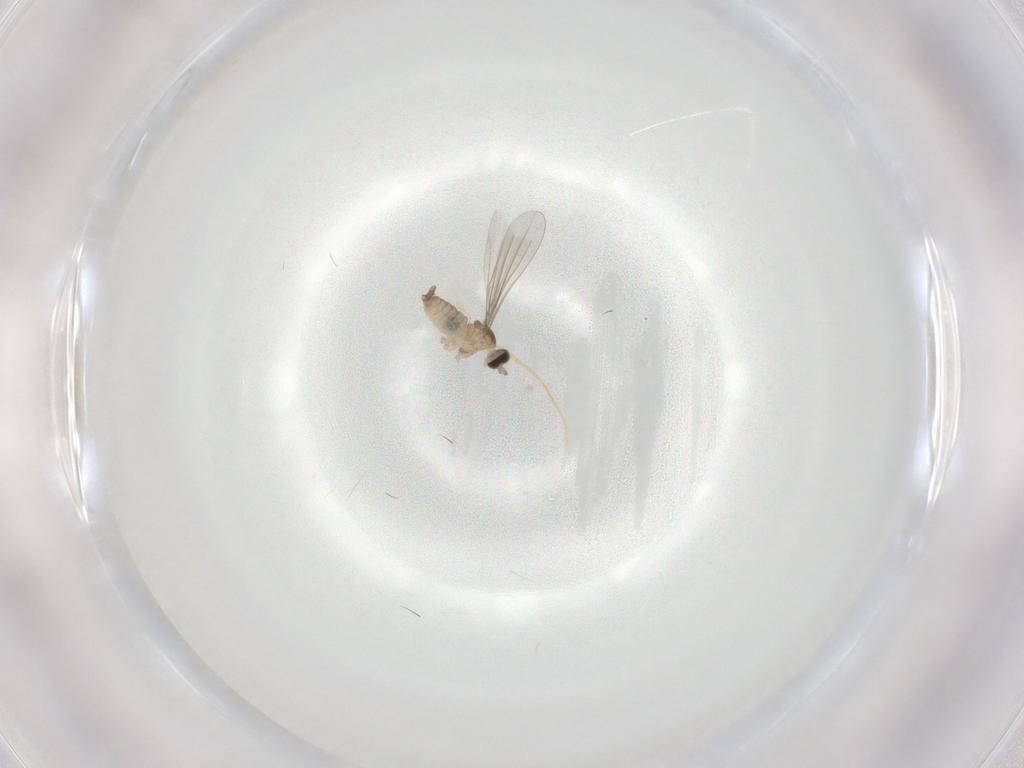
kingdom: Animalia
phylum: Arthropoda
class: Insecta
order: Diptera
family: Cecidomyiidae
